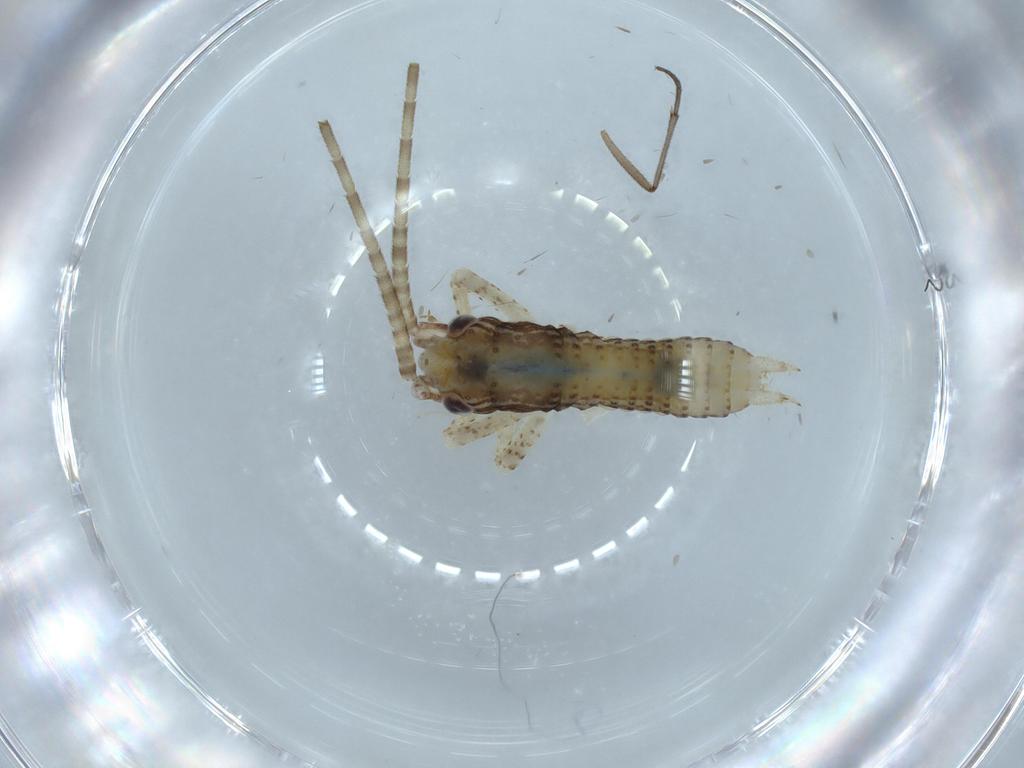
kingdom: Animalia
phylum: Arthropoda
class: Insecta
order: Orthoptera
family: Gryllidae
